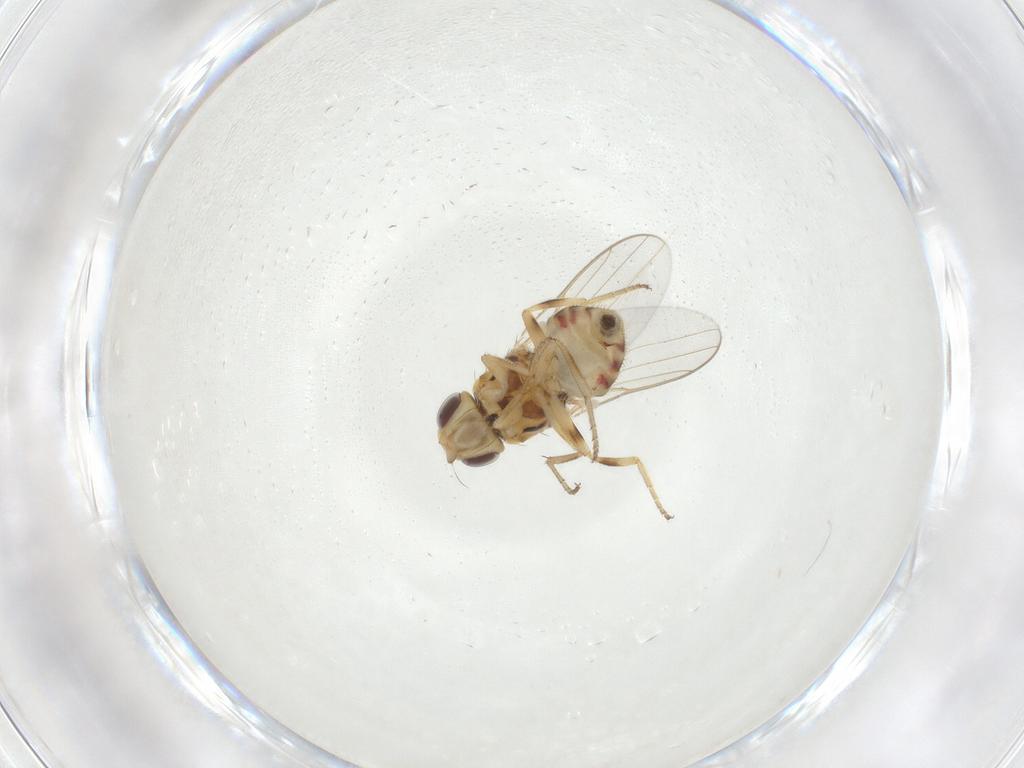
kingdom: Animalia
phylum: Arthropoda
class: Insecta
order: Diptera
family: Chloropidae
